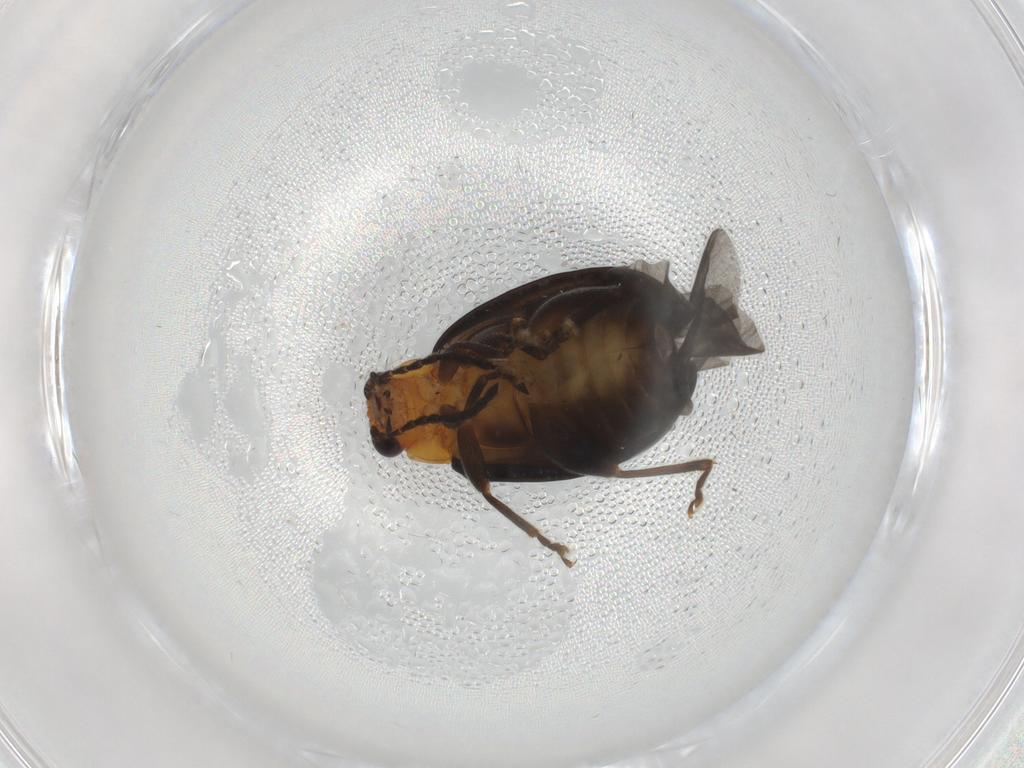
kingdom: Animalia
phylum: Arthropoda
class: Insecta
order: Coleoptera
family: Chrysomelidae
